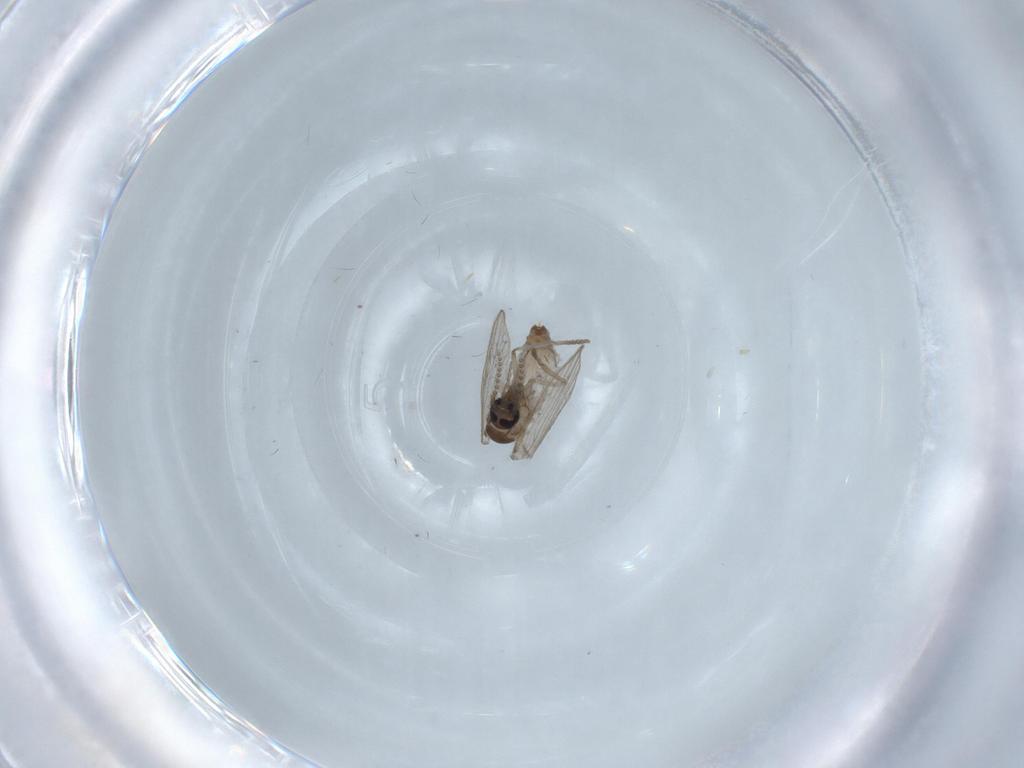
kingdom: Animalia
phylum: Arthropoda
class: Insecta
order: Diptera
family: Psychodidae
